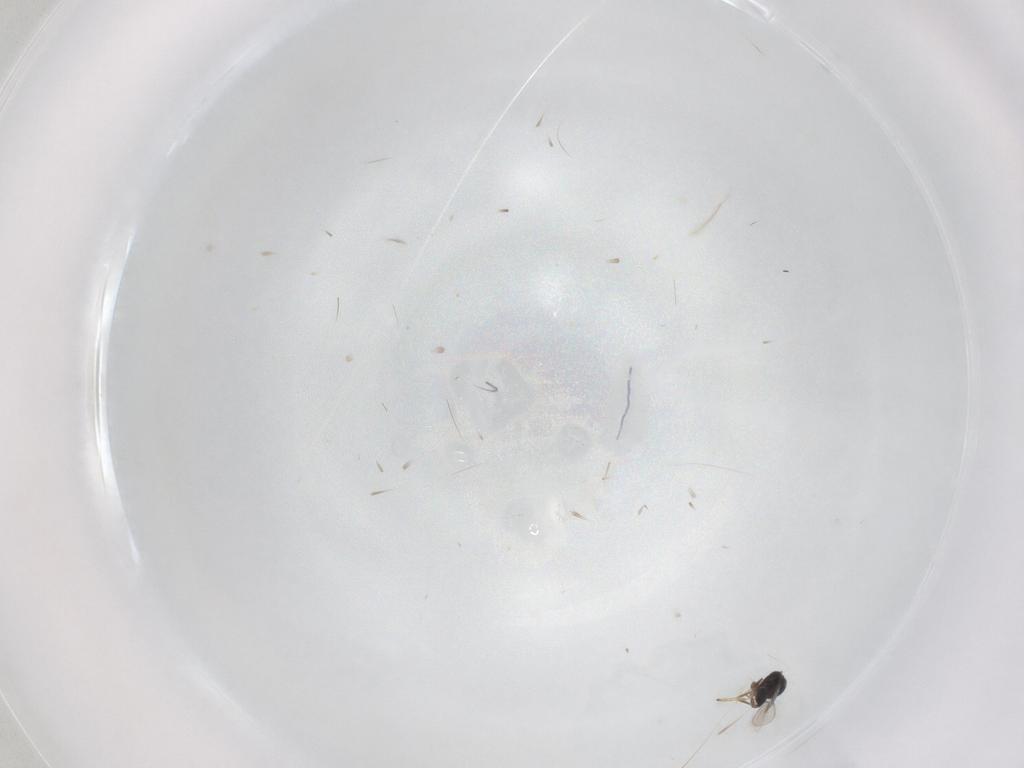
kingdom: Animalia
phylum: Arthropoda
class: Insecta
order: Hymenoptera
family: Scelionidae
